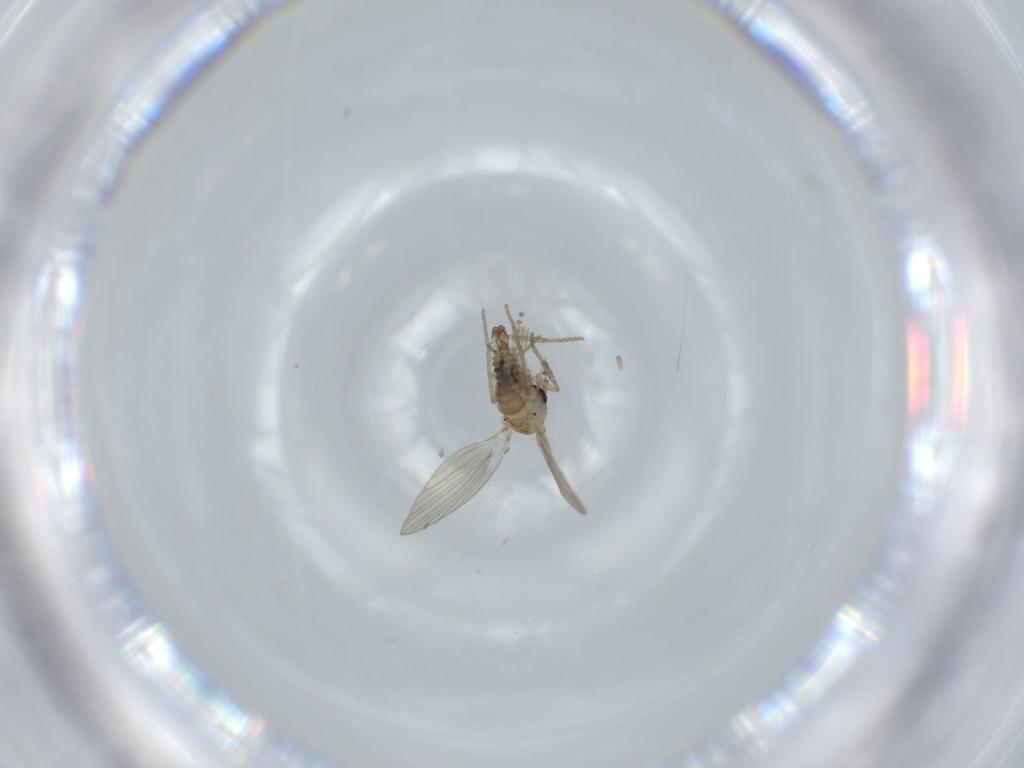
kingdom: Animalia
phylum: Arthropoda
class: Insecta
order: Diptera
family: Psychodidae
